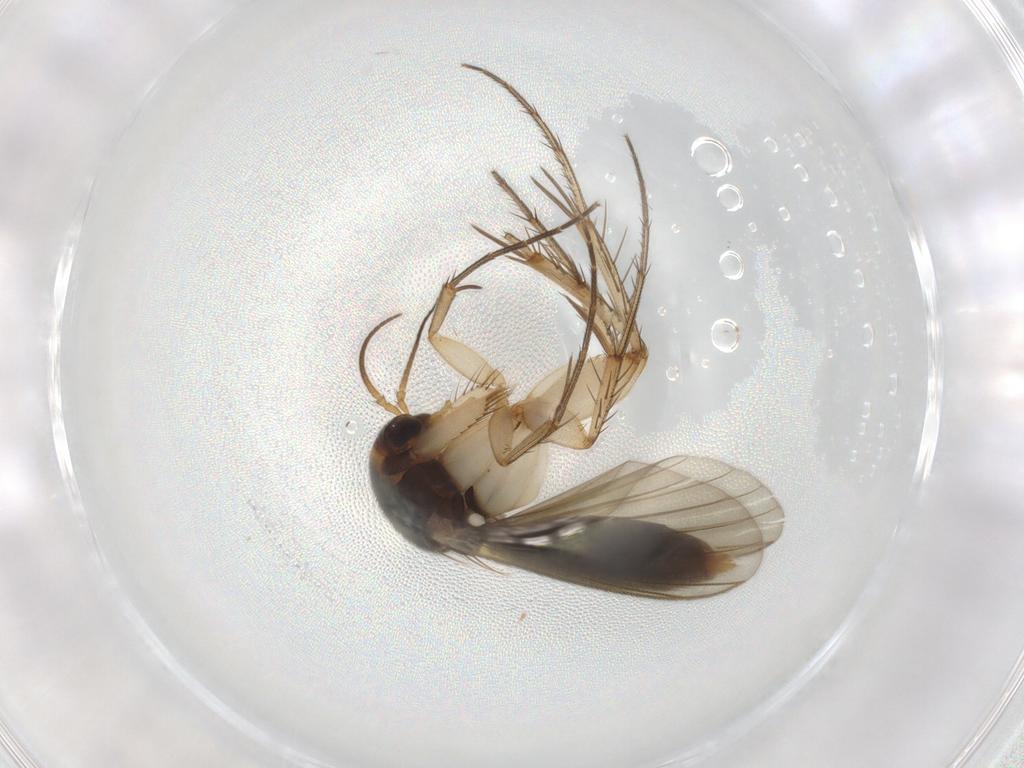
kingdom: Animalia
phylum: Arthropoda
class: Insecta
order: Diptera
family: Mycetophilidae
